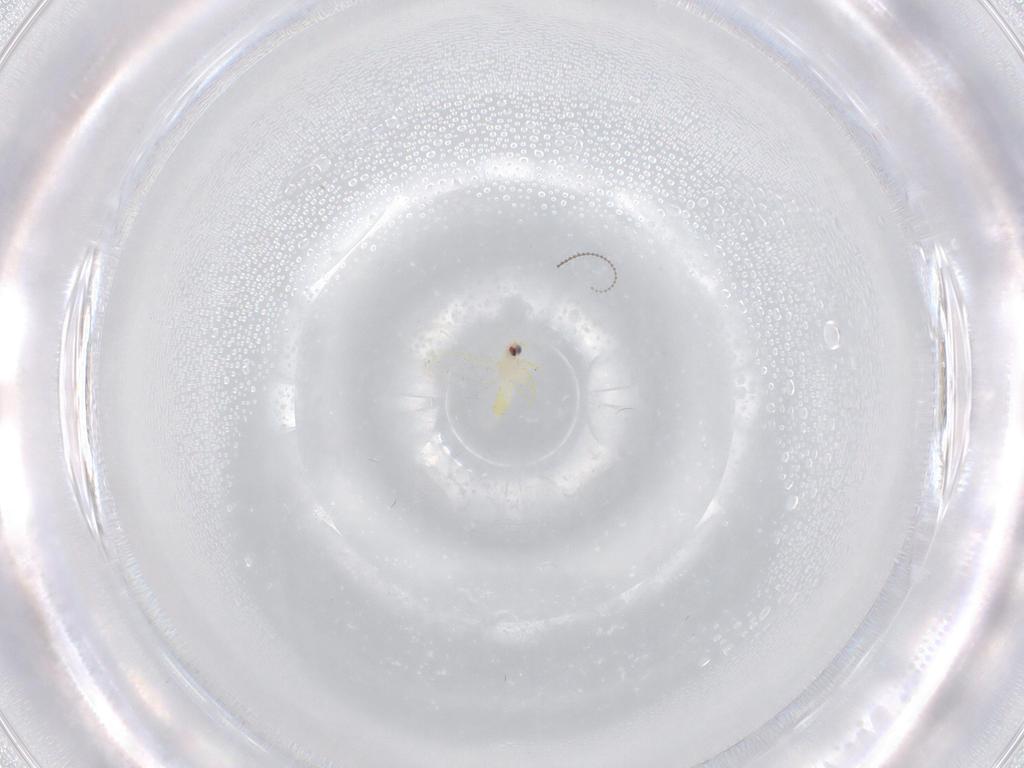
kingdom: Animalia
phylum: Arthropoda
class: Insecta
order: Hemiptera
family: Aleyrodidae
